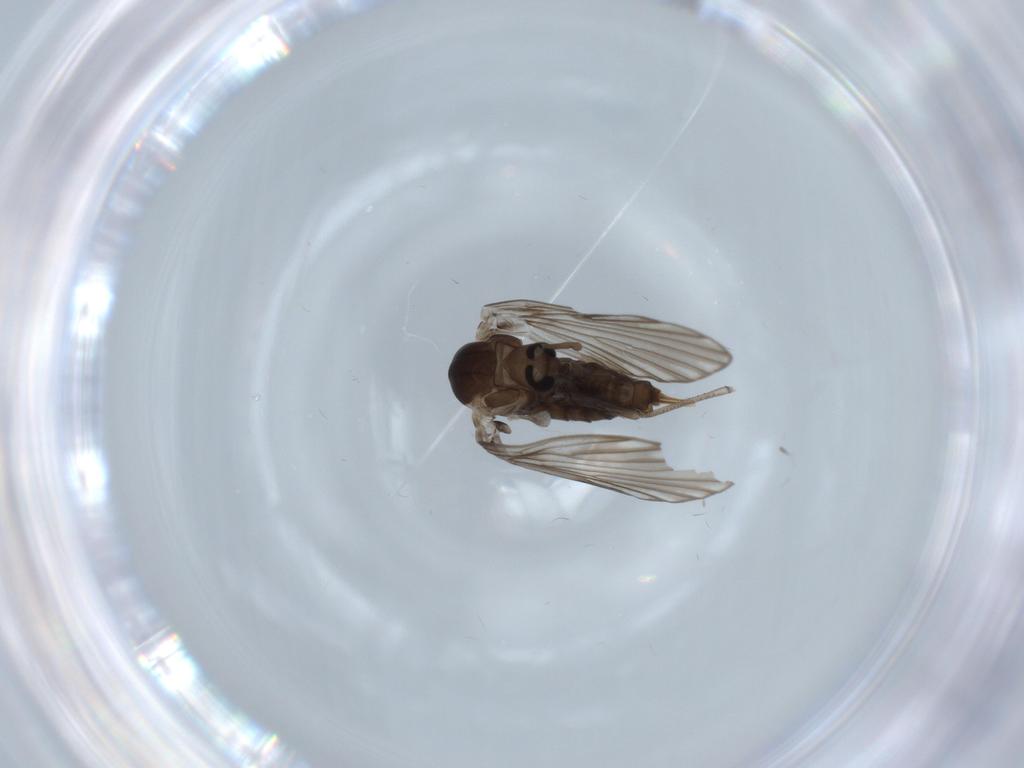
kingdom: Animalia
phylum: Arthropoda
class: Insecta
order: Diptera
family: Psychodidae
